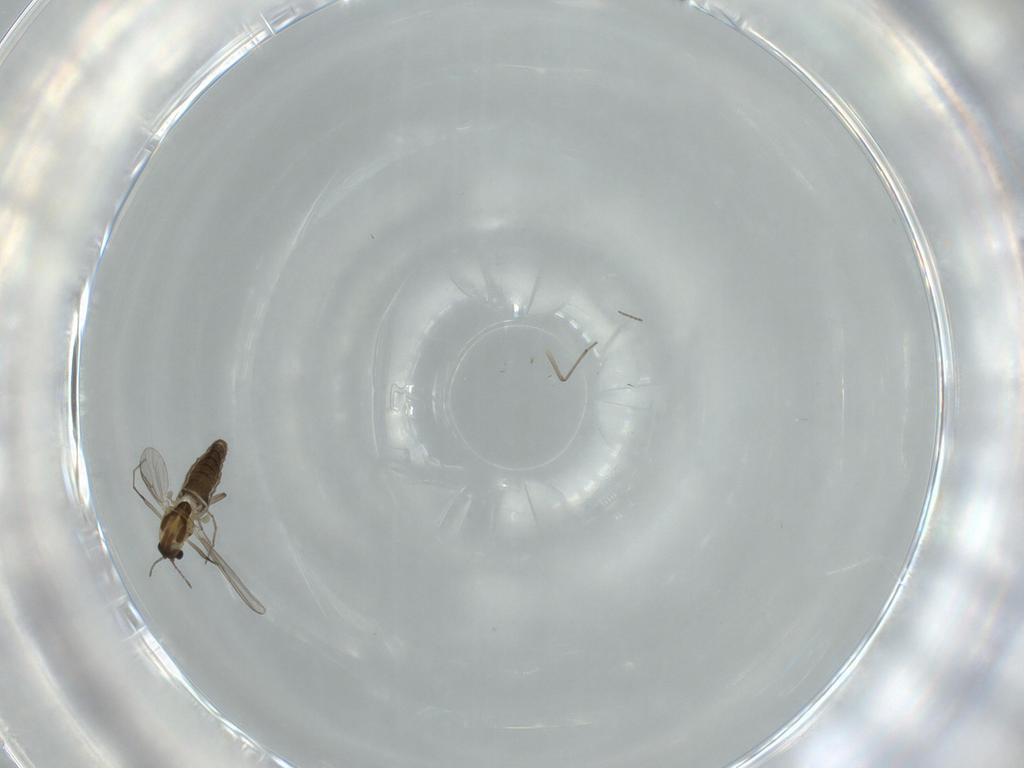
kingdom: Animalia
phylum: Arthropoda
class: Insecta
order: Diptera
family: Chironomidae
